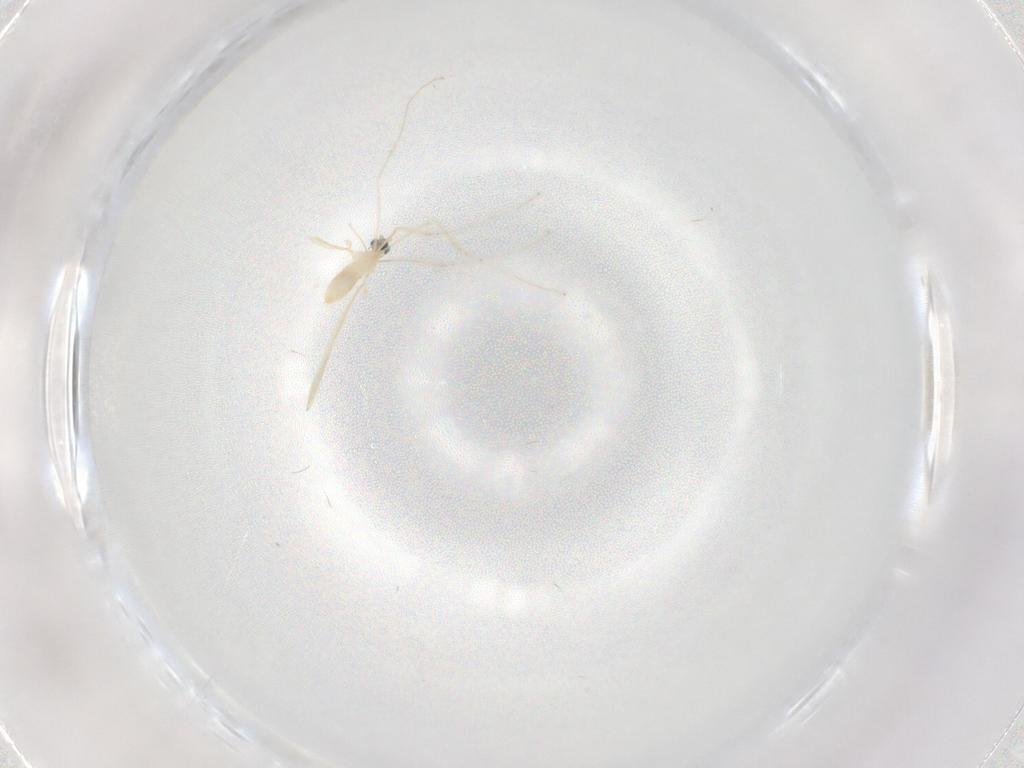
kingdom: Animalia
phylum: Arthropoda
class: Insecta
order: Diptera
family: Cecidomyiidae
